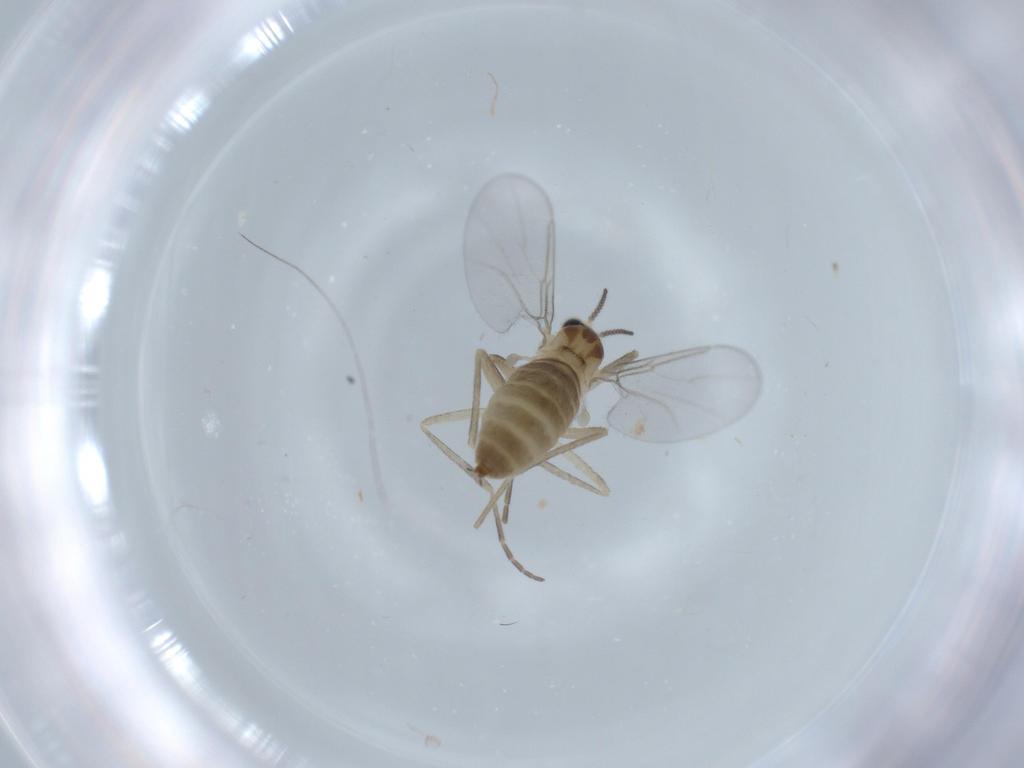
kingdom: Animalia
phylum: Arthropoda
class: Insecta
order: Diptera
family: Cecidomyiidae
